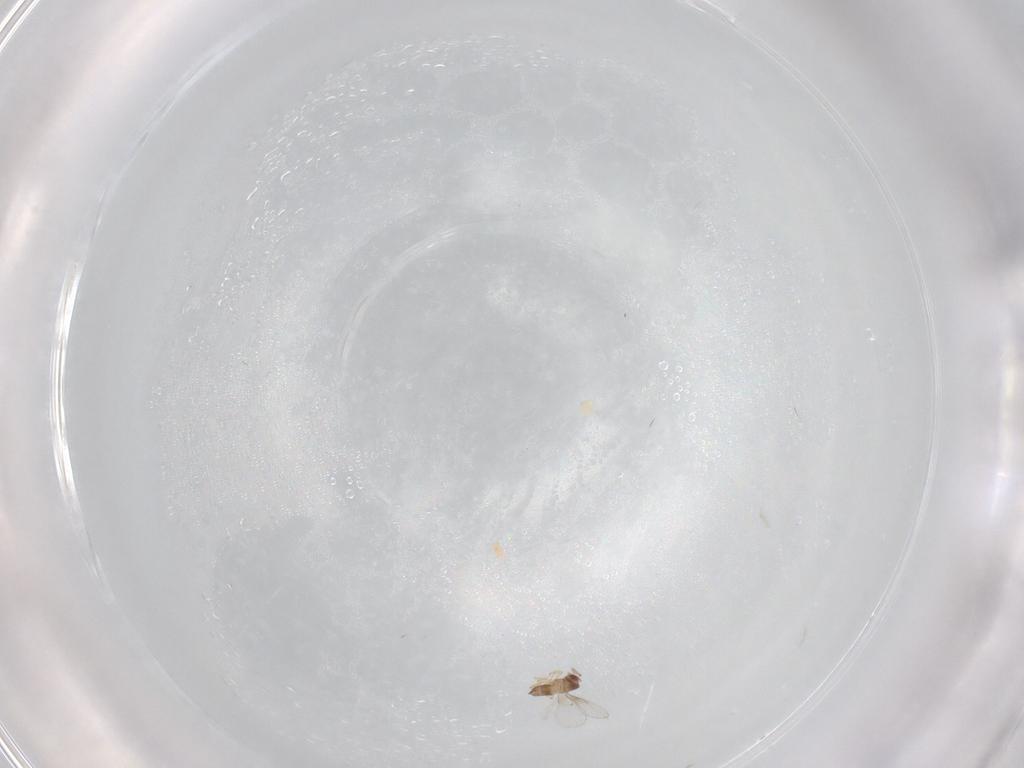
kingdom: Animalia
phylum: Arthropoda
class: Insecta
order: Hymenoptera
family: Trichogrammatidae
